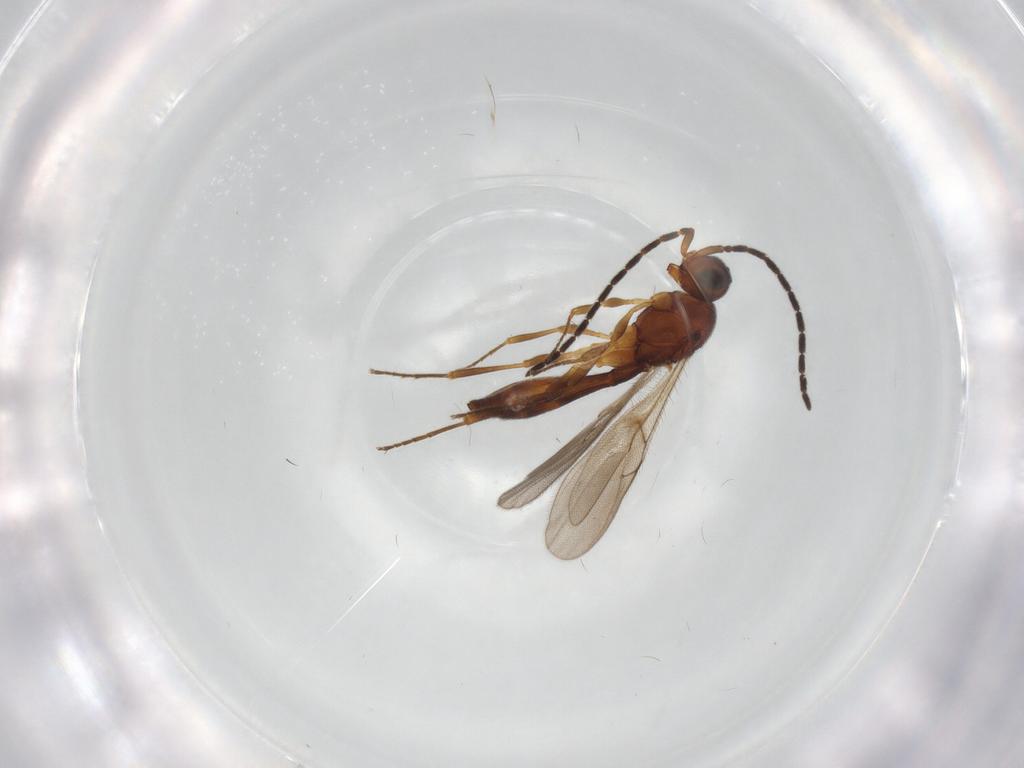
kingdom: Animalia
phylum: Arthropoda
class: Insecta
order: Hymenoptera
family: Scelionidae
